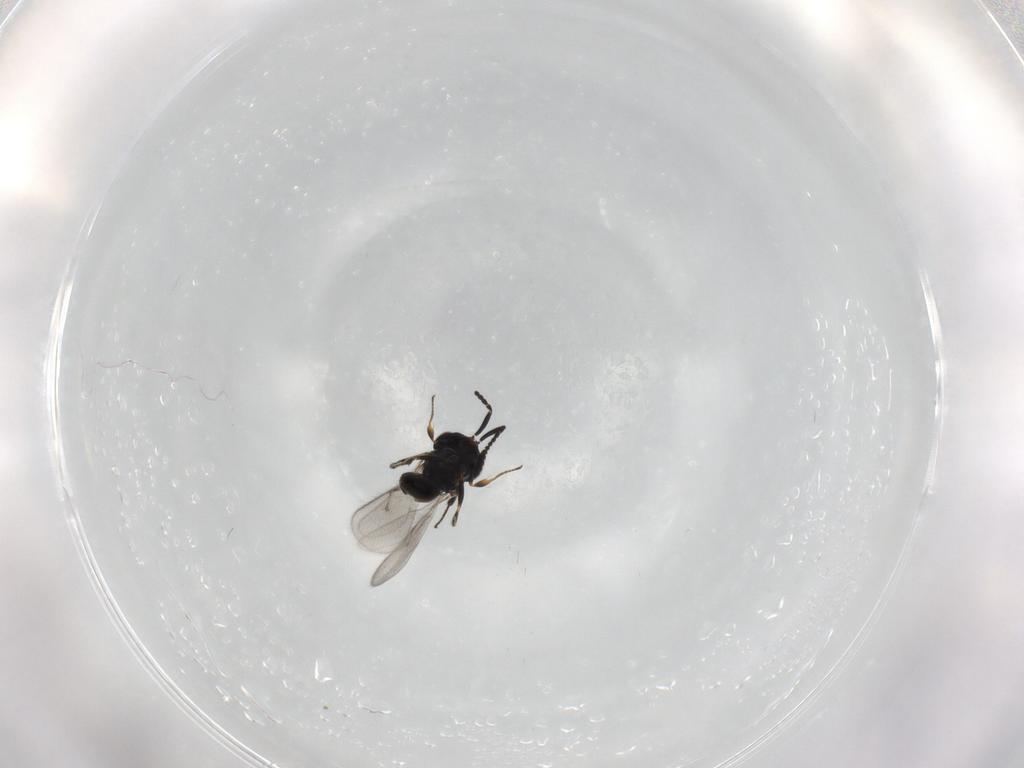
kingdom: Animalia
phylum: Arthropoda
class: Insecta
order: Hymenoptera
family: Scelionidae
